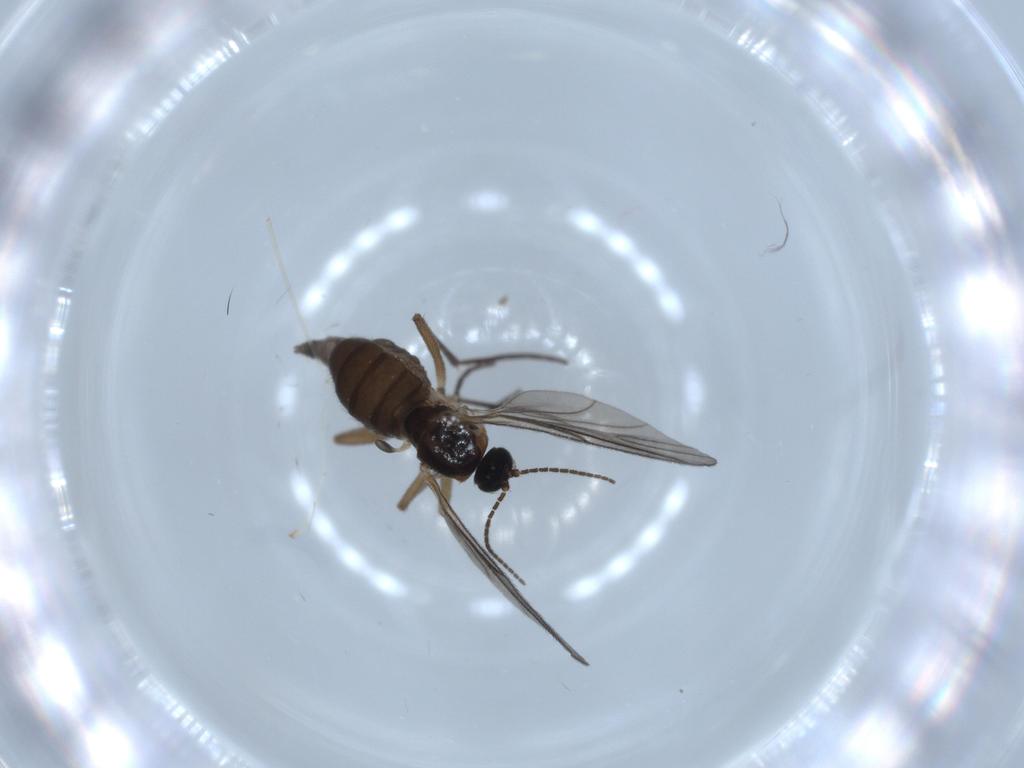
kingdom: Animalia
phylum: Arthropoda
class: Insecta
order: Diptera
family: Sciaridae
